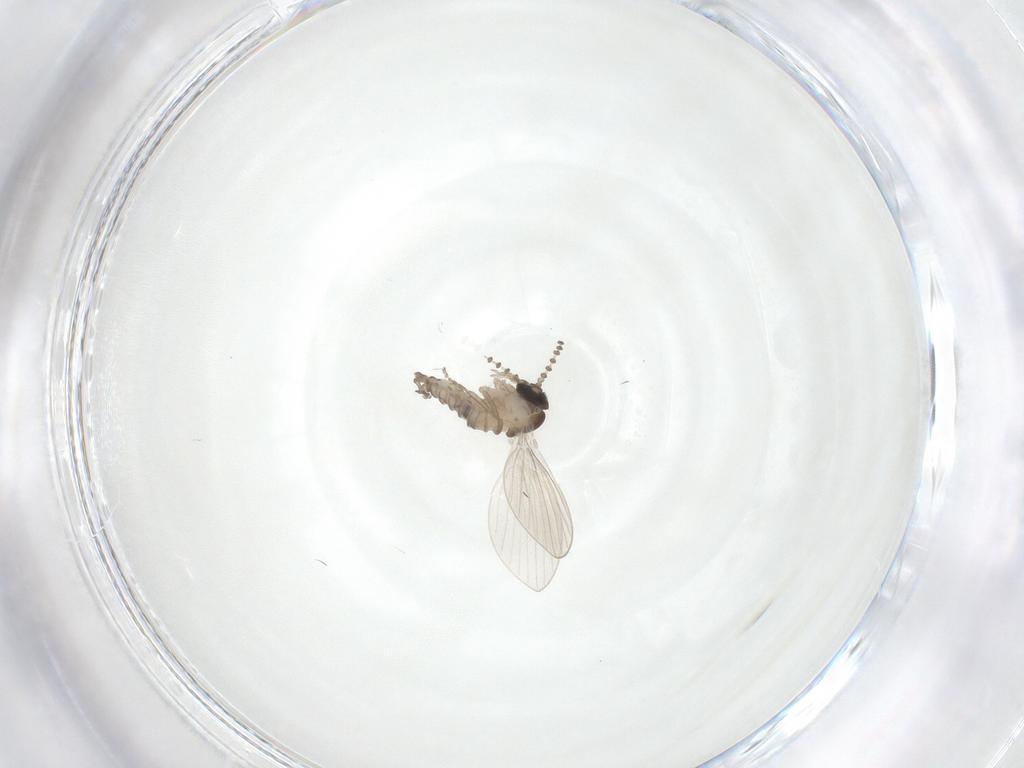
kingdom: Animalia
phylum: Arthropoda
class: Insecta
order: Diptera
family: Psychodidae
